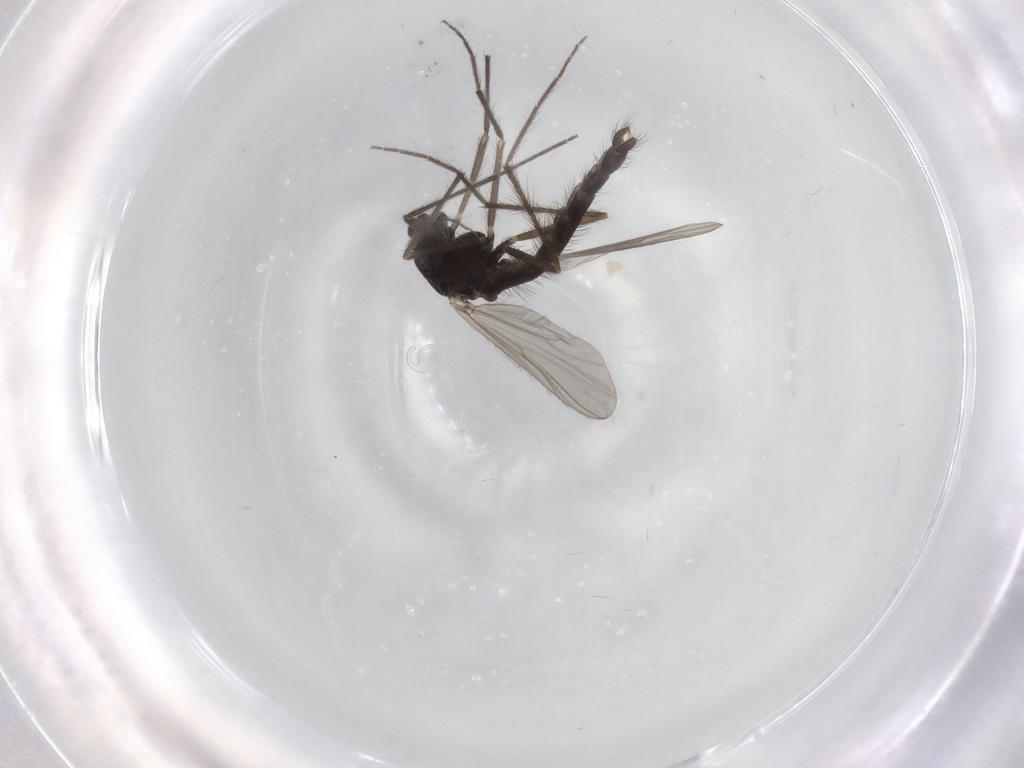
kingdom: Animalia
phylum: Arthropoda
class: Insecta
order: Diptera
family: Chironomidae
